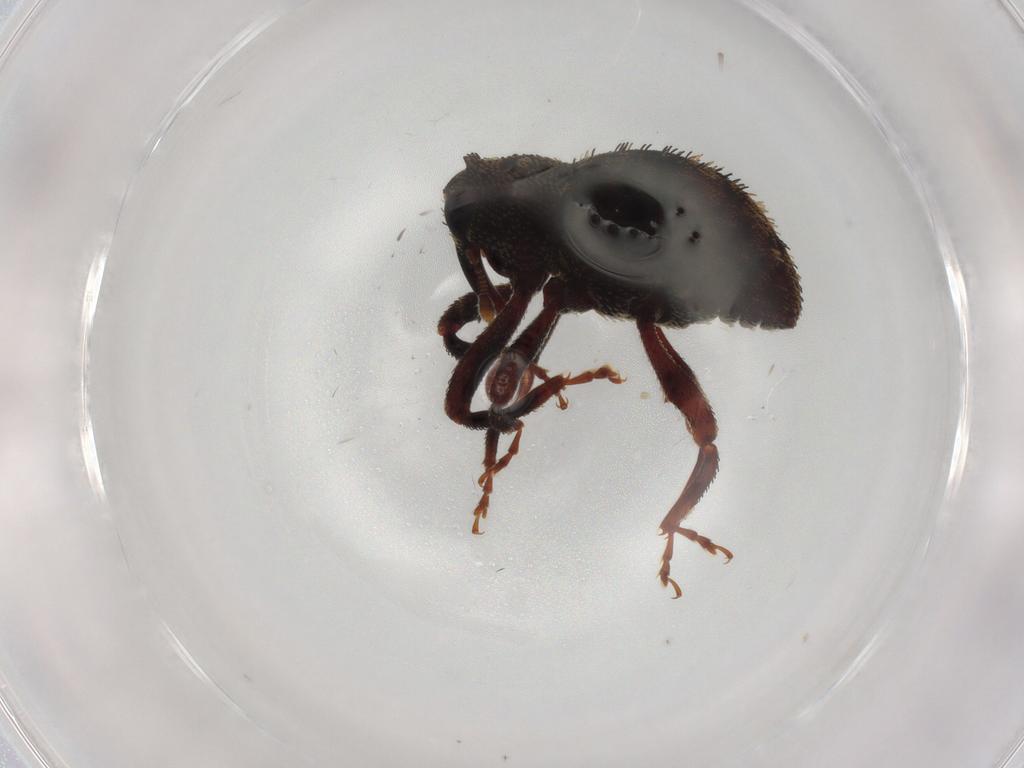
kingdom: Animalia
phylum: Arthropoda
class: Insecta
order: Coleoptera
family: Curculionidae
